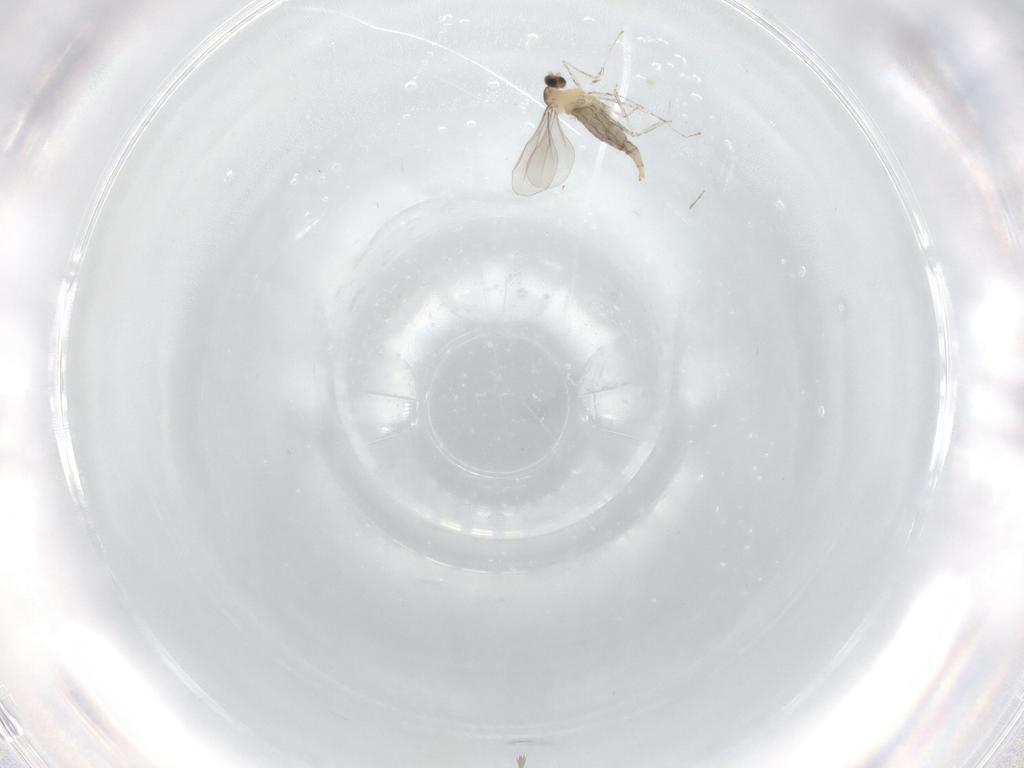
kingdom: Animalia
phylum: Arthropoda
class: Insecta
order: Diptera
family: Cecidomyiidae
